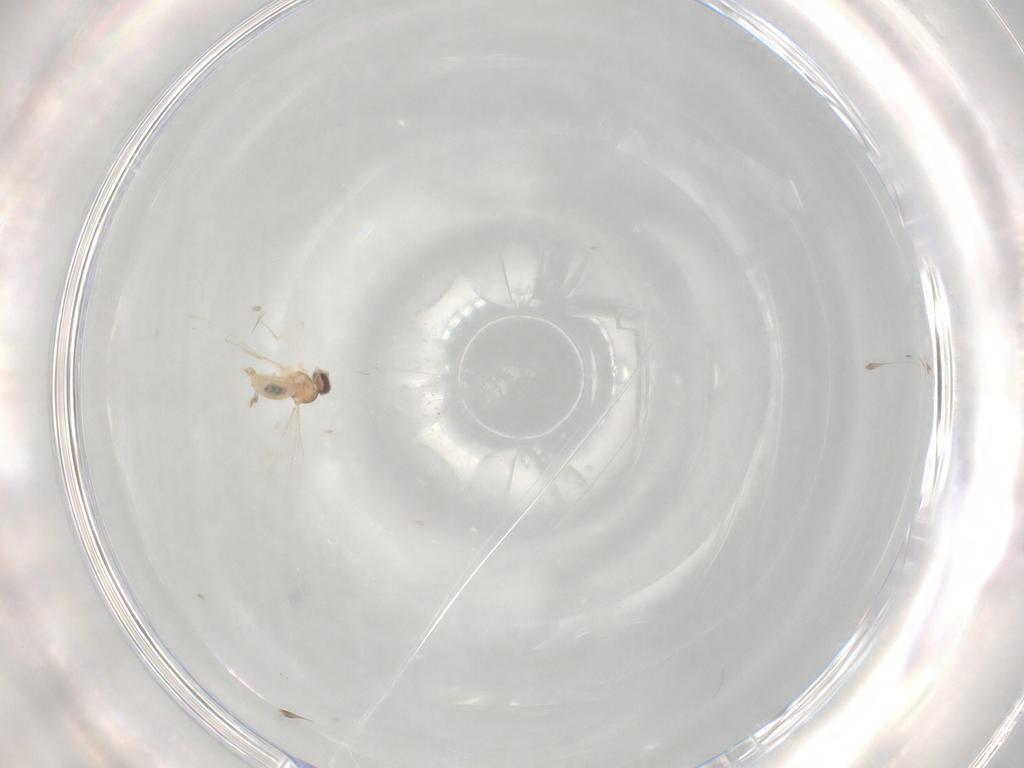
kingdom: Animalia
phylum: Arthropoda
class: Insecta
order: Diptera
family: Cecidomyiidae
